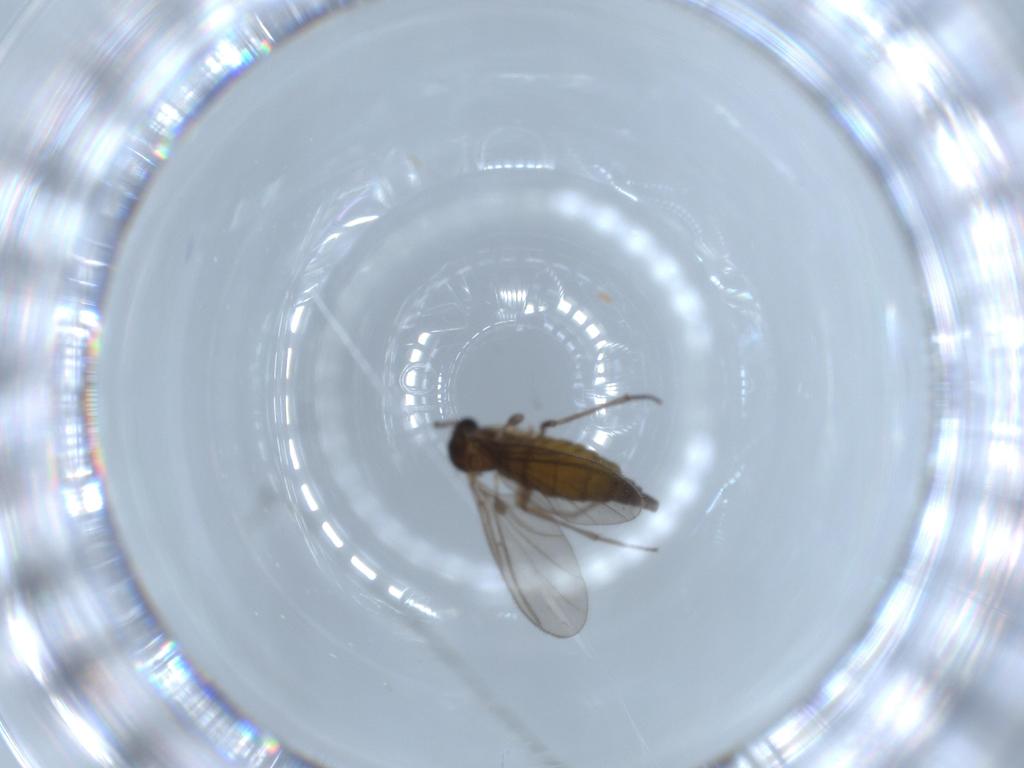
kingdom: Animalia
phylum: Arthropoda
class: Insecta
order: Diptera
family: Sciaridae
